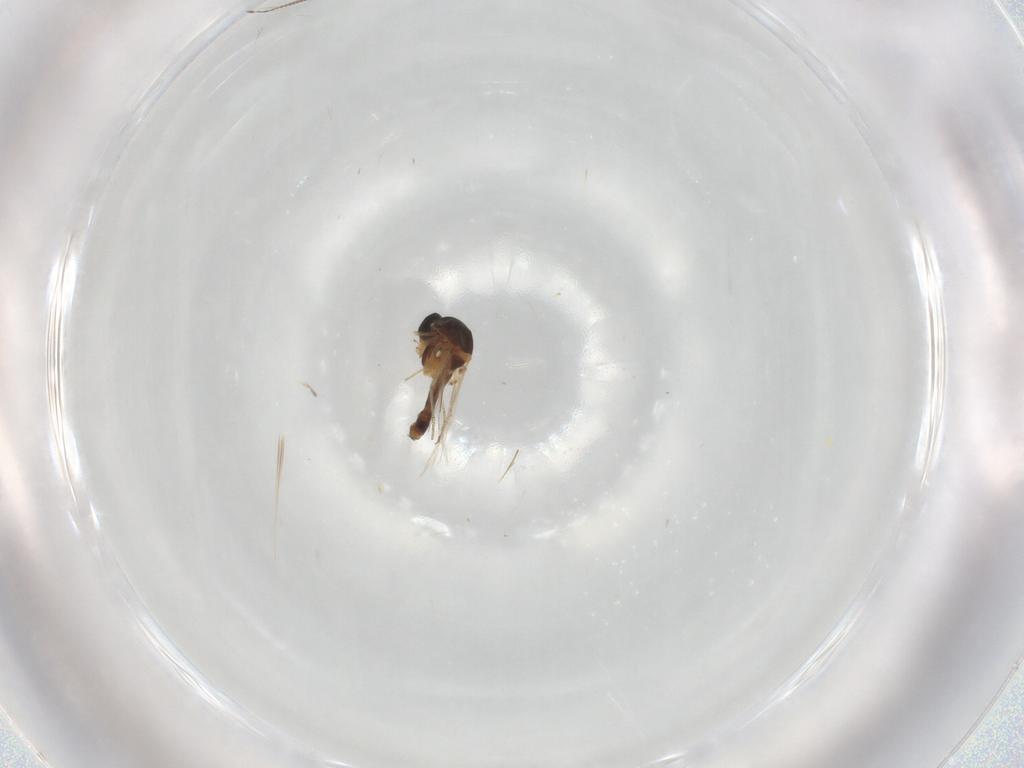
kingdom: Animalia
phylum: Arthropoda
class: Insecta
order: Diptera
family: Ceratopogonidae
